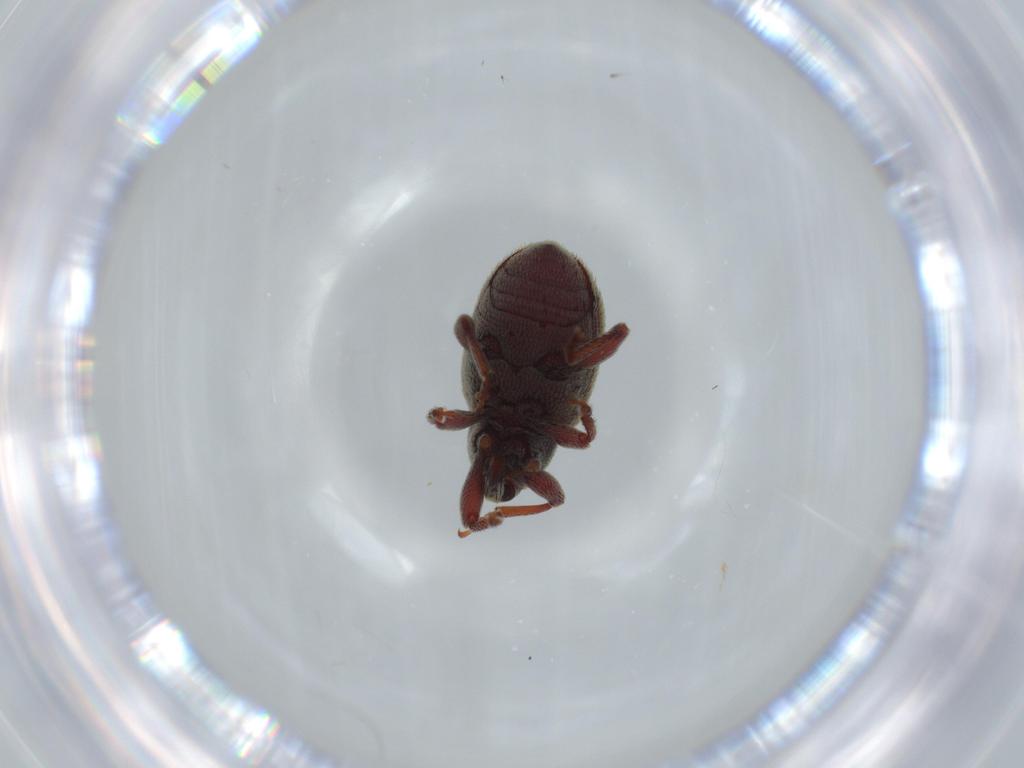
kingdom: Animalia
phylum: Arthropoda
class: Insecta
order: Coleoptera
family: Curculionidae
